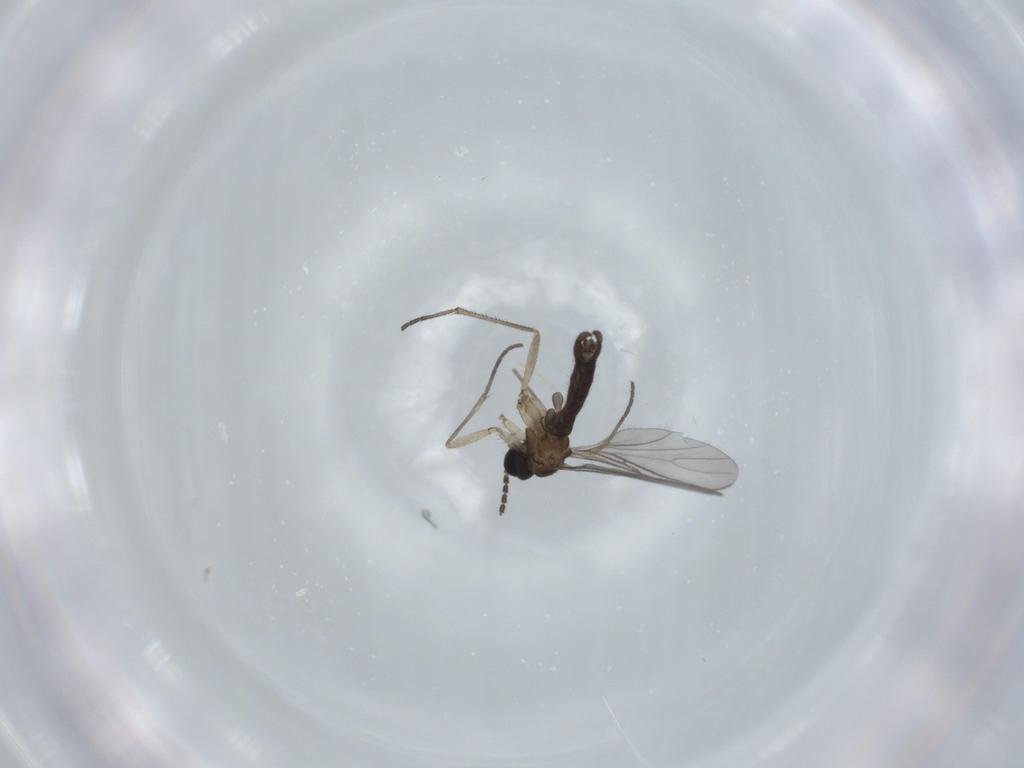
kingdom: Animalia
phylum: Arthropoda
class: Insecta
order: Diptera
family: Sciaridae
